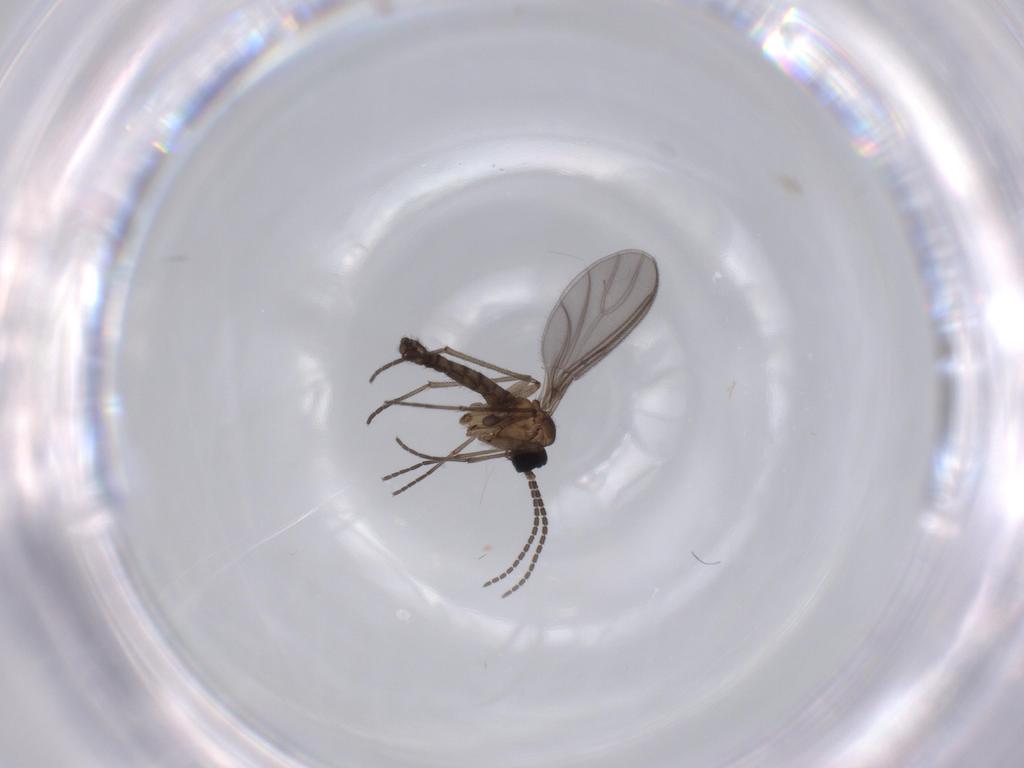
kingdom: Animalia
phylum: Arthropoda
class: Insecta
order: Diptera
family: Sciaridae
